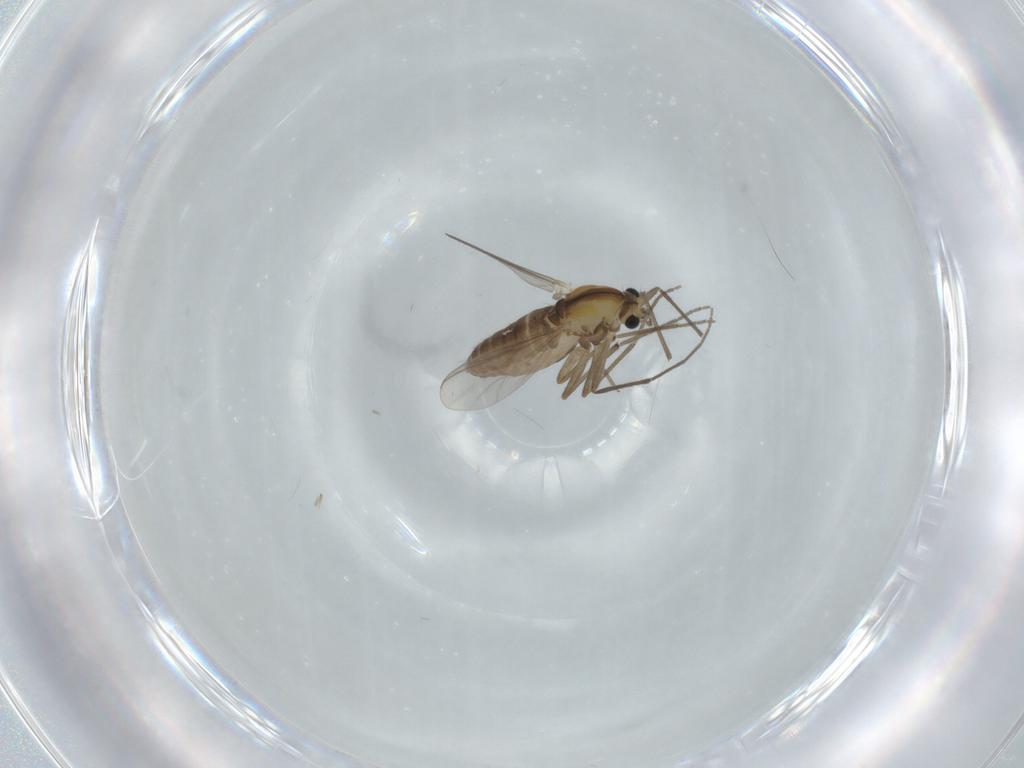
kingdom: Animalia
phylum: Arthropoda
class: Insecta
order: Diptera
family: Chironomidae
